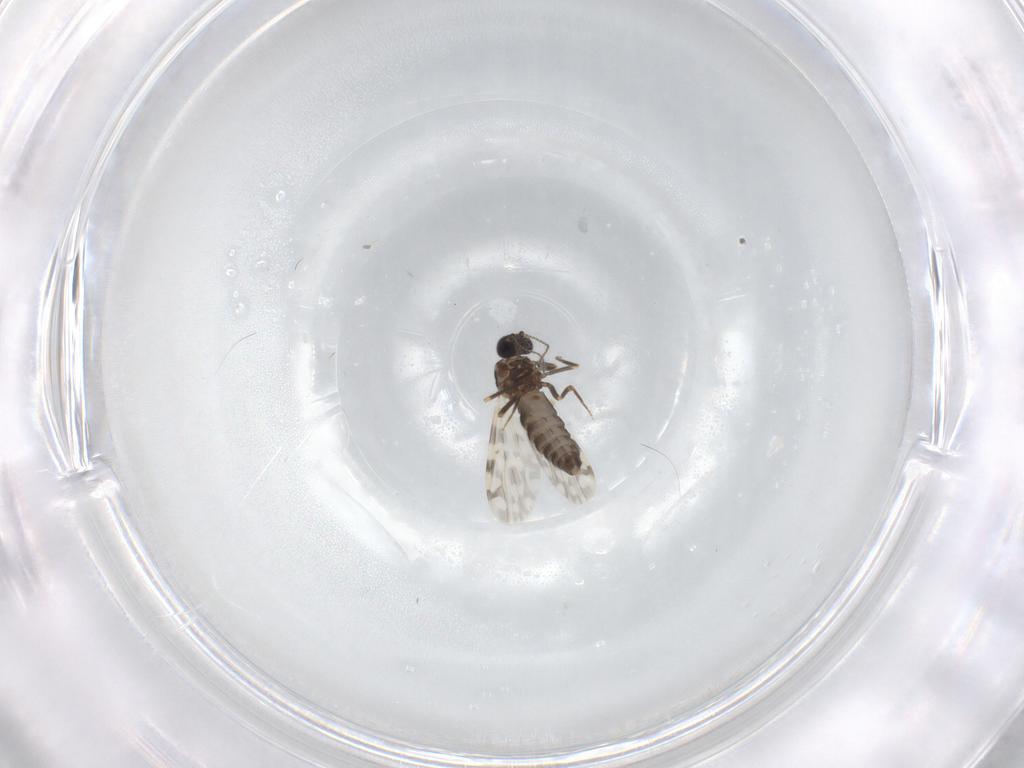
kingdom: Animalia
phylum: Arthropoda
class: Insecta
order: Diptera
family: Ceratopogonidae
